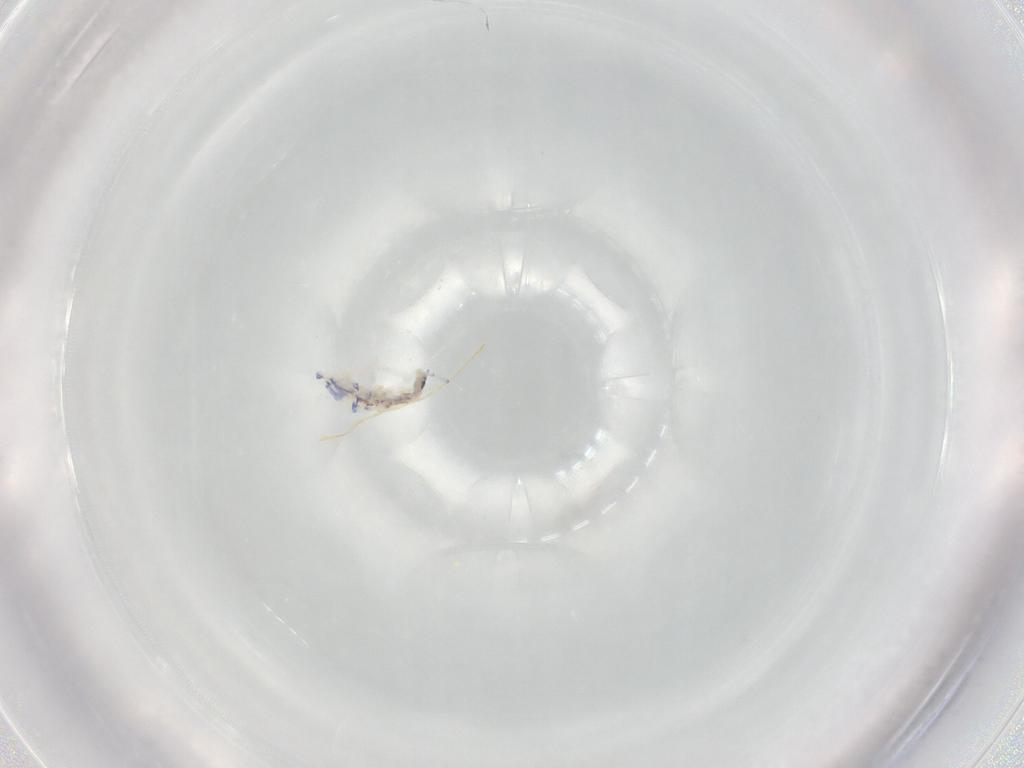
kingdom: Animalia
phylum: Arthropoda
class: Collembola
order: Entomobryomorpha
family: Entomobryidae
